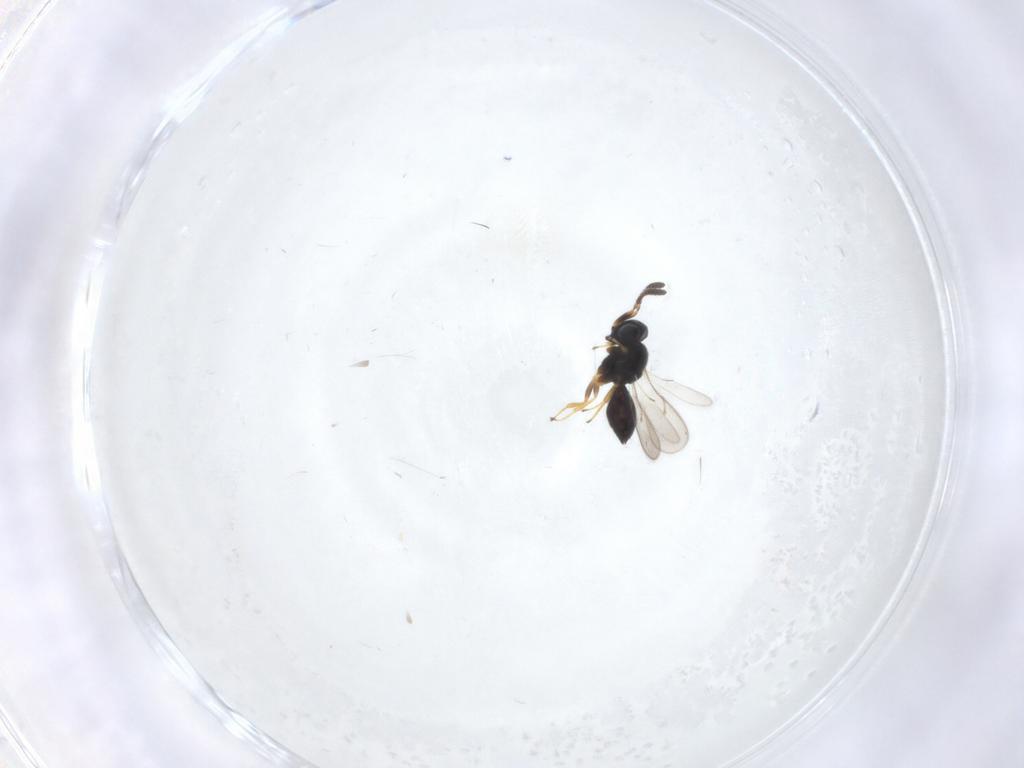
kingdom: Animalia
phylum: Arthropoda
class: Insecta
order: Hymenoptera
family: Scelionidae
